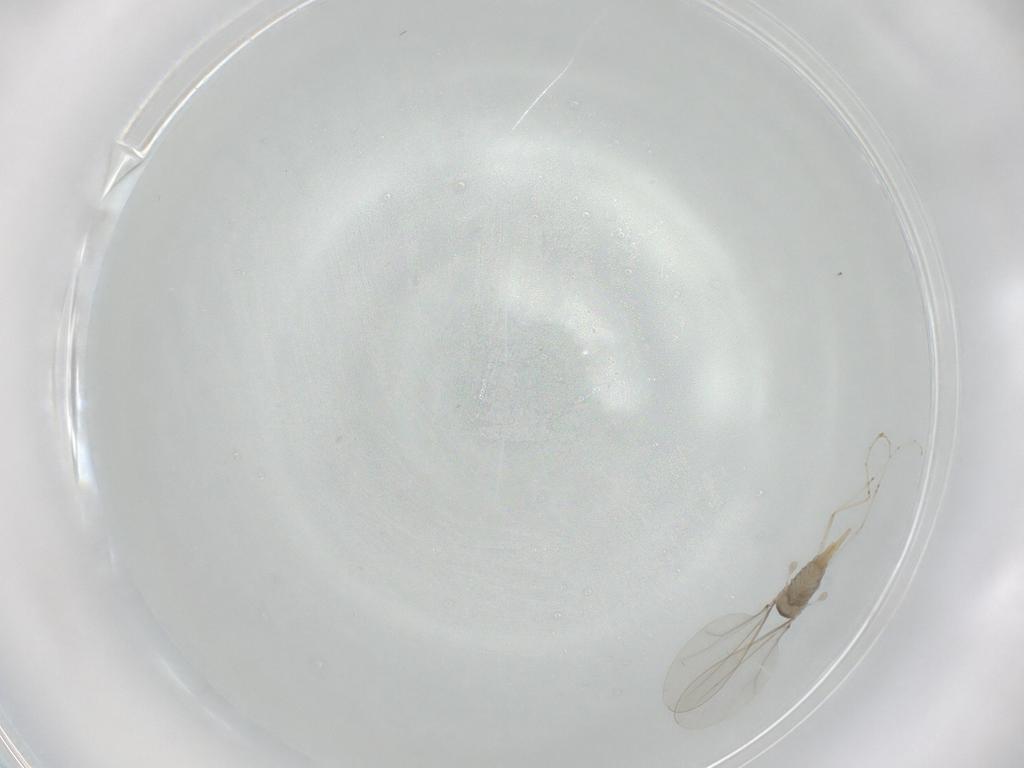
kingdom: Animalia
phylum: Arthropoda
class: Insecta
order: Diptera
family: Cecidomyiidae
